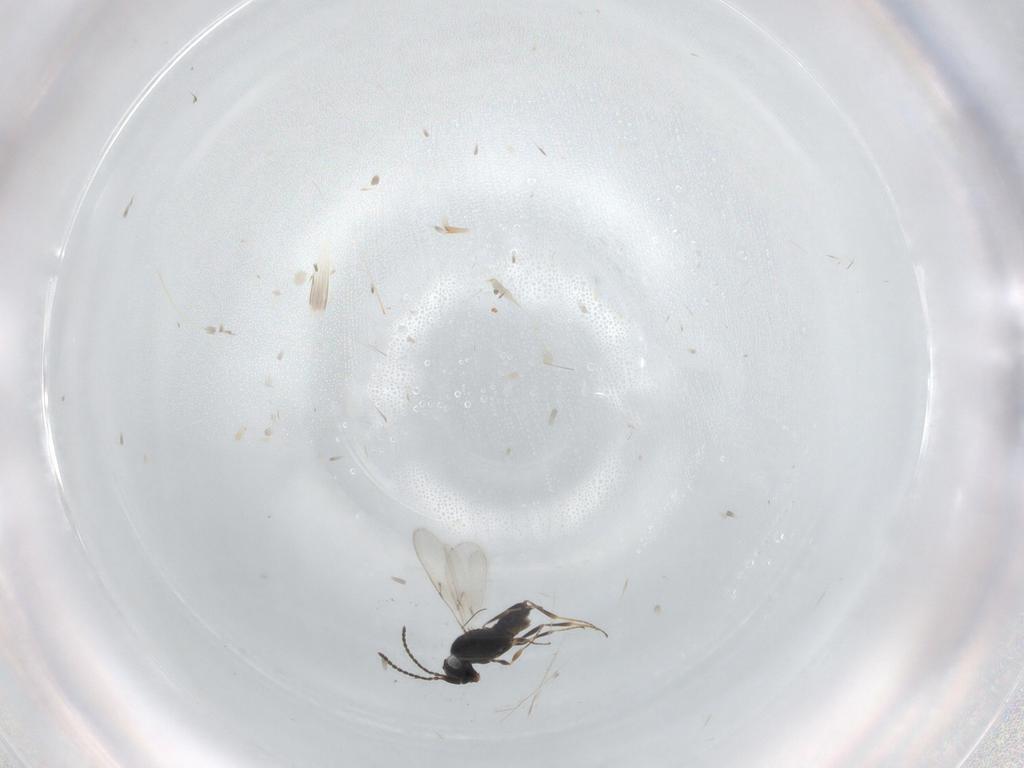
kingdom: Animalia
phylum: Arthropoda
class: Insecta
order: Hymenoptera
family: Scelionidae
